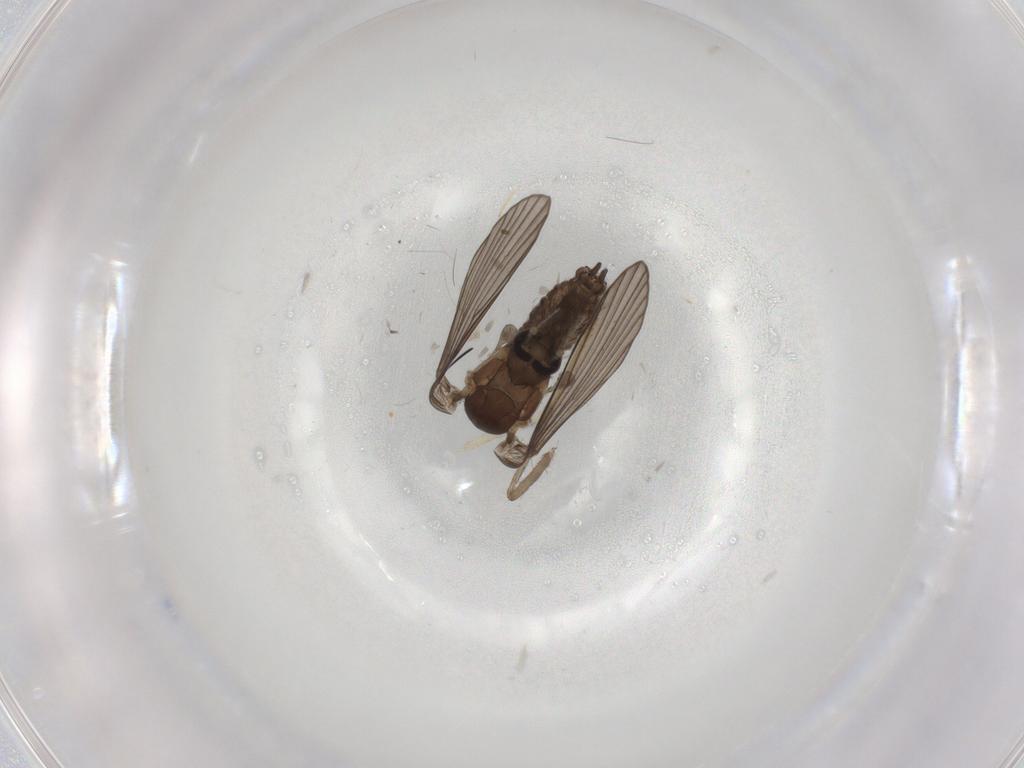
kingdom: Animalia
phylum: Arthropoda
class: Insecta
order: Diptera
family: Psychodidae
